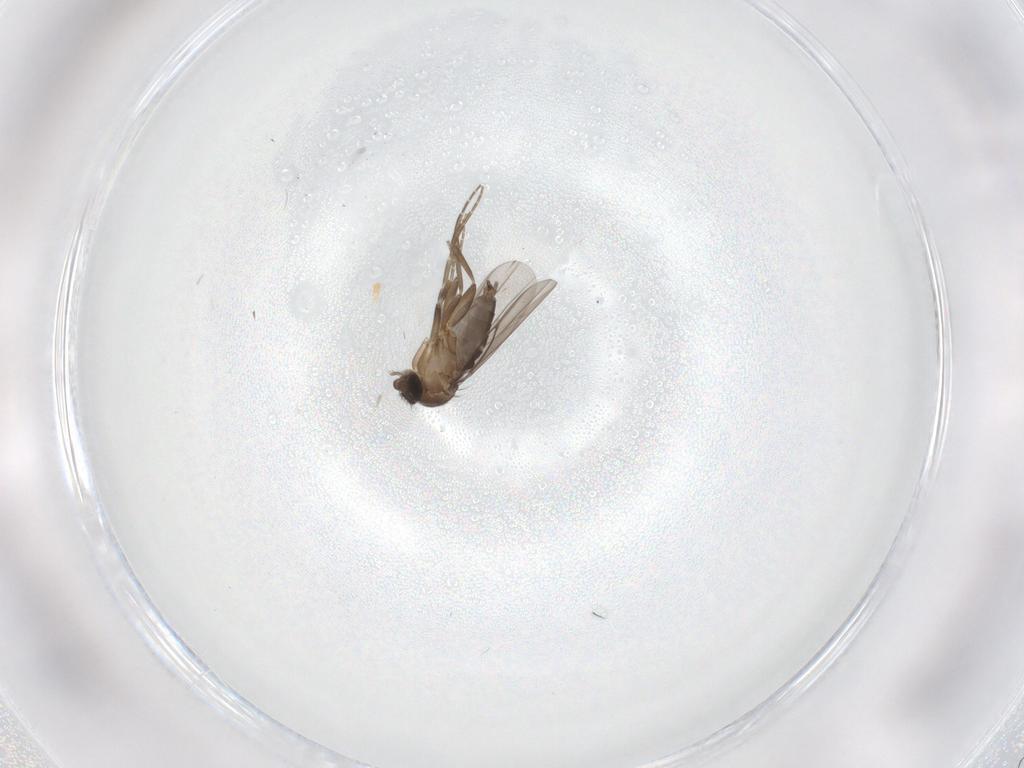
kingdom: Animalia
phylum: Arthropoda
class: Insecta
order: Diptera
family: Phoridae
